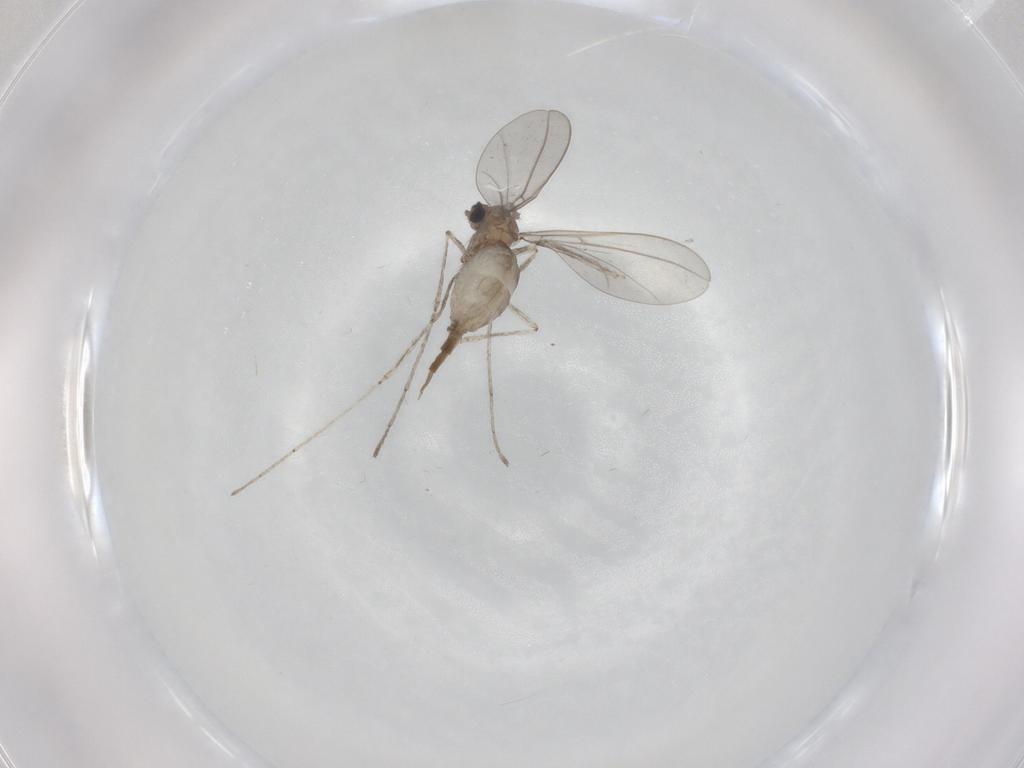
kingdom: Animalia
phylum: Arthropoda
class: Insecta
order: Diptera
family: Cecidomyiidae
